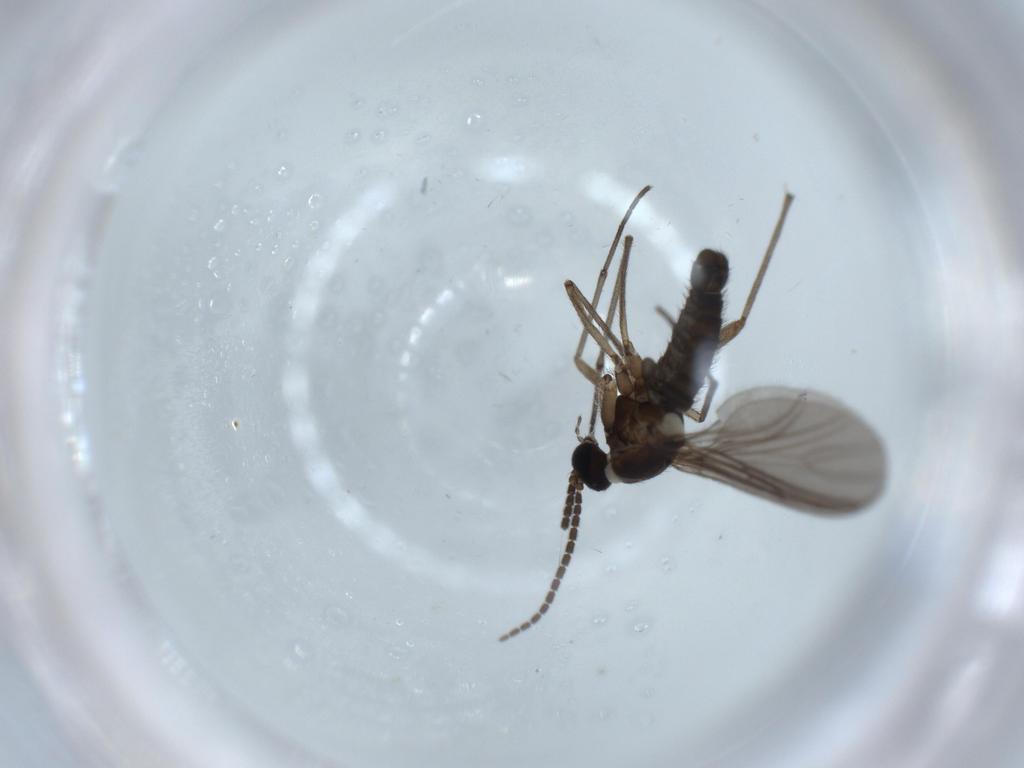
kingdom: Animalia
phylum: Arthropoda
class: Insecta
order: Diptera
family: Sciaridae
